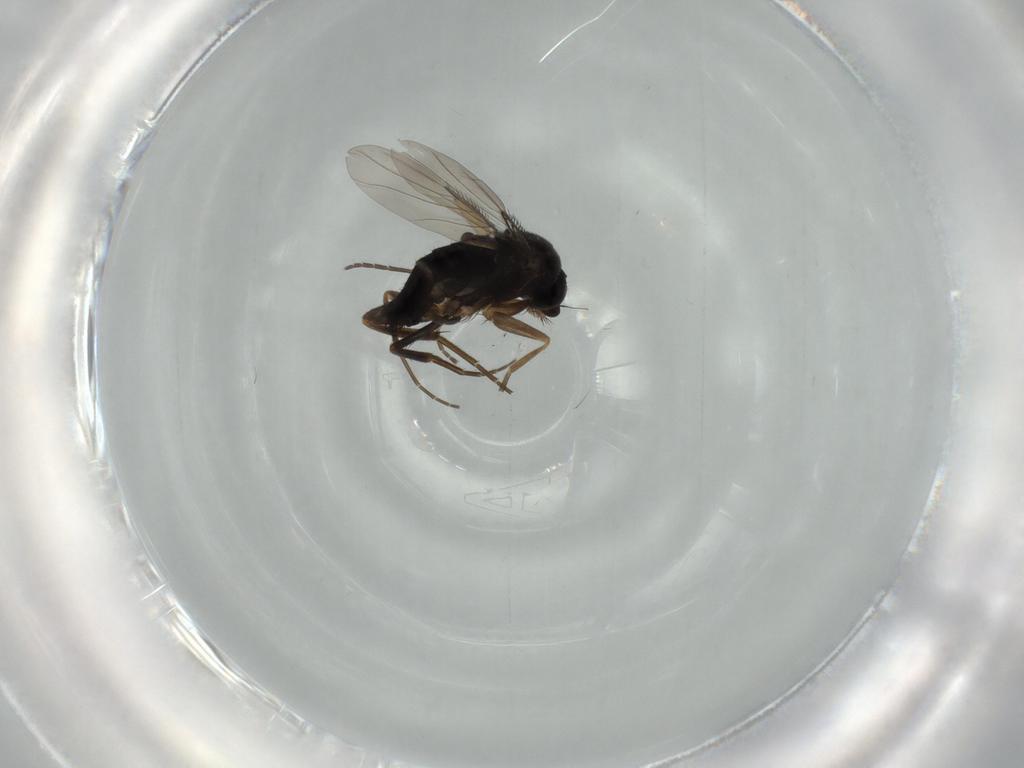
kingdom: Animalia
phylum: Arthropoda
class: Insecta
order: Diptera
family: Phoridae
